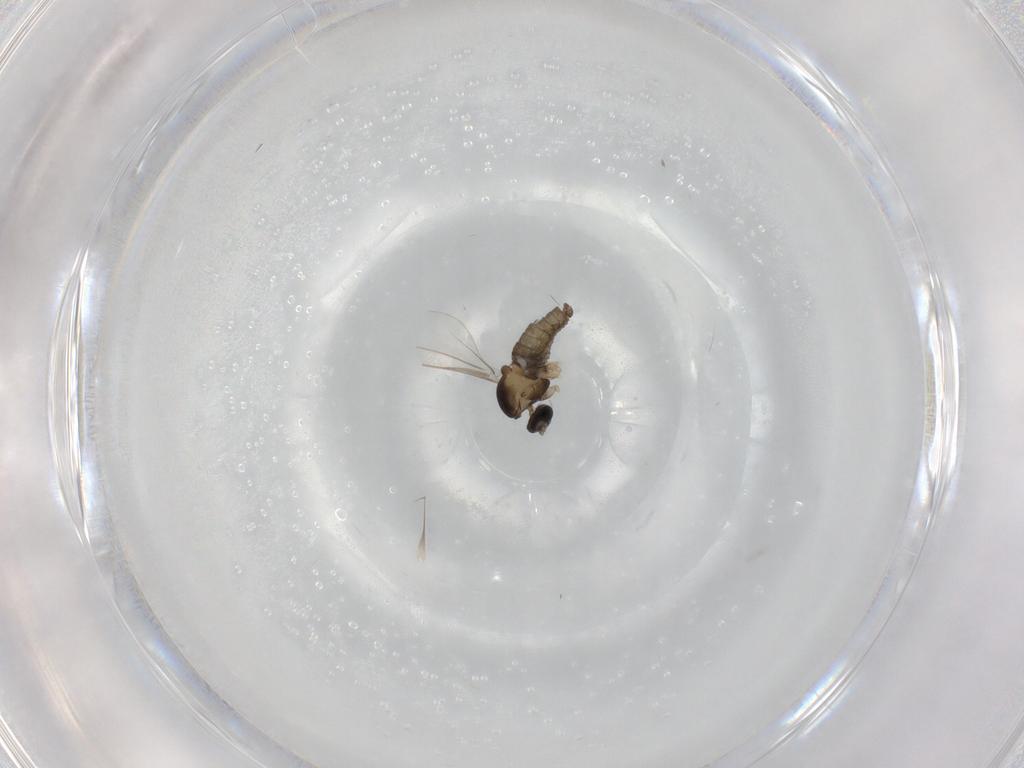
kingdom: Animalia
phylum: Arthropoda
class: Insecta
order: Diptera
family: Cecidomyiidae
